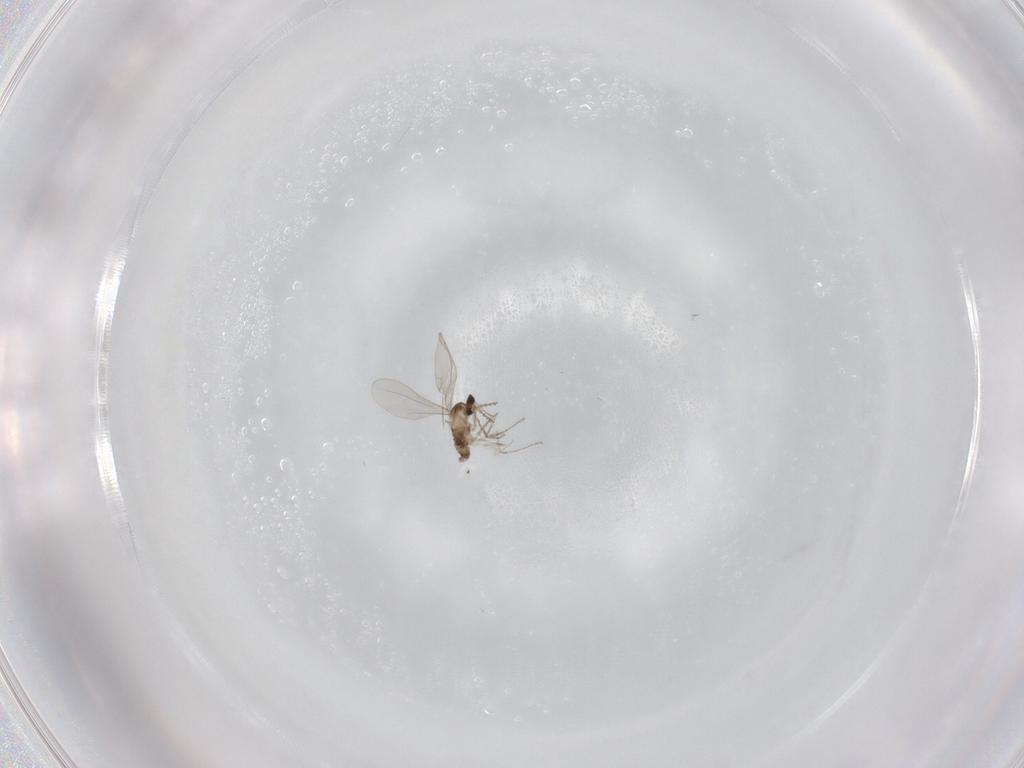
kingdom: Animalia
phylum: Arthropoda
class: Insecta
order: Diptera
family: Cecidomyiidae
